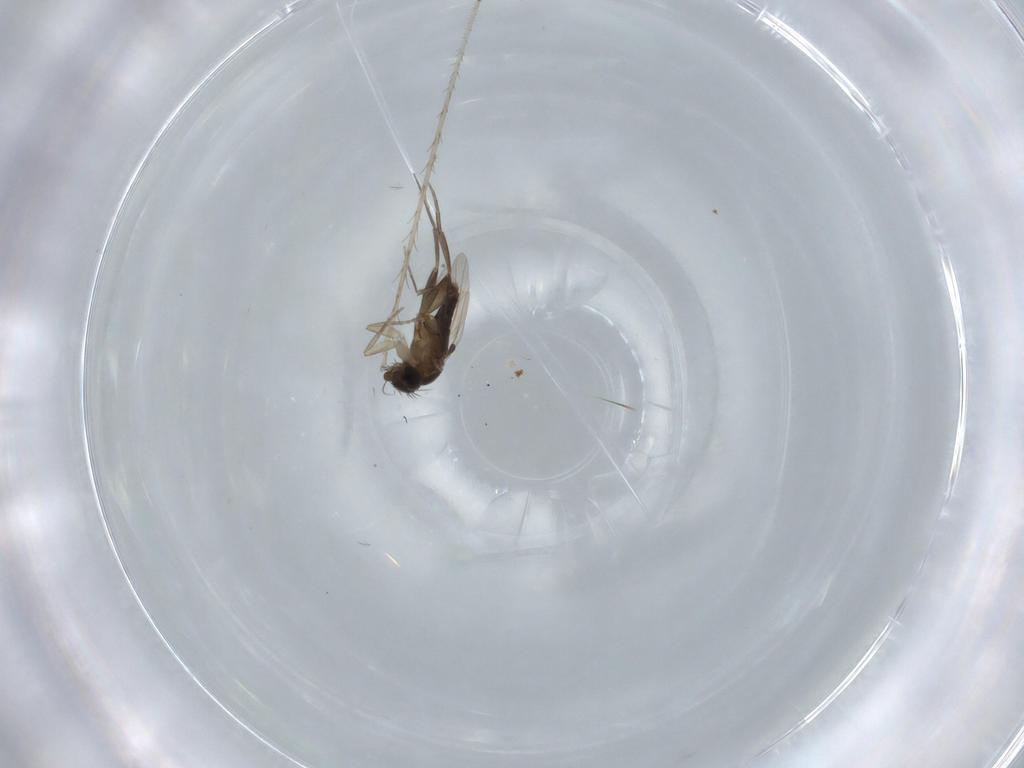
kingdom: Animalia
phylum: Arthropoda
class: Insecta
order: Diptera
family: Phoridae
